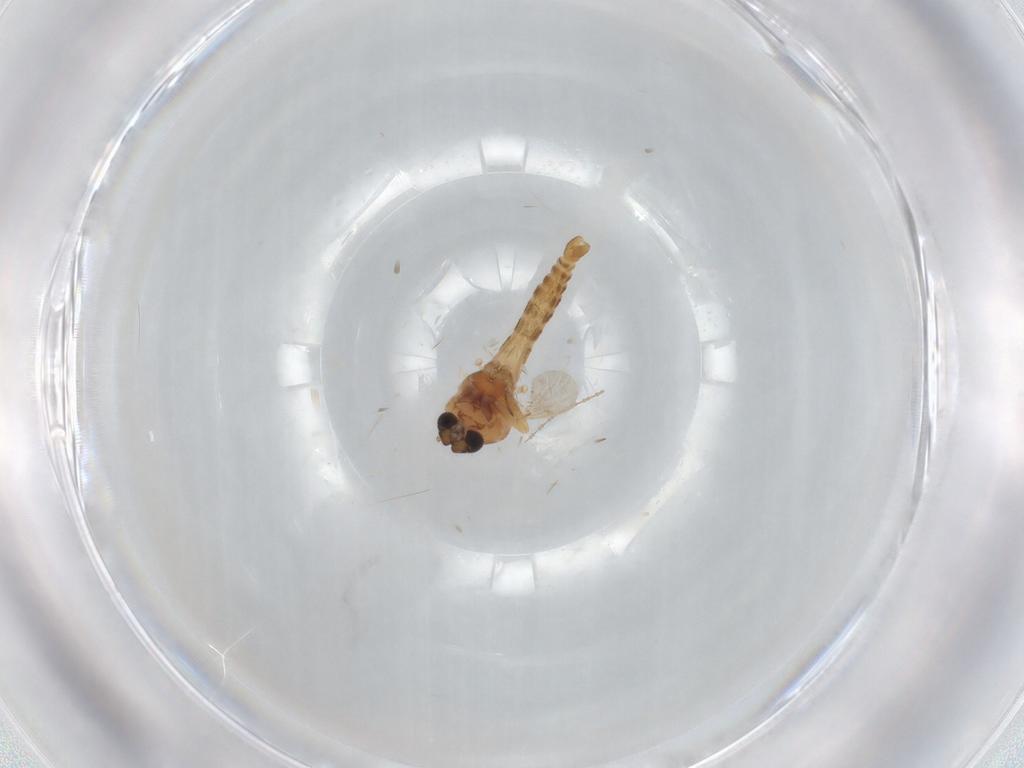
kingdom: Animalia
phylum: Arthropoda
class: Insecta
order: Diptera
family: Cecidomyiidae
